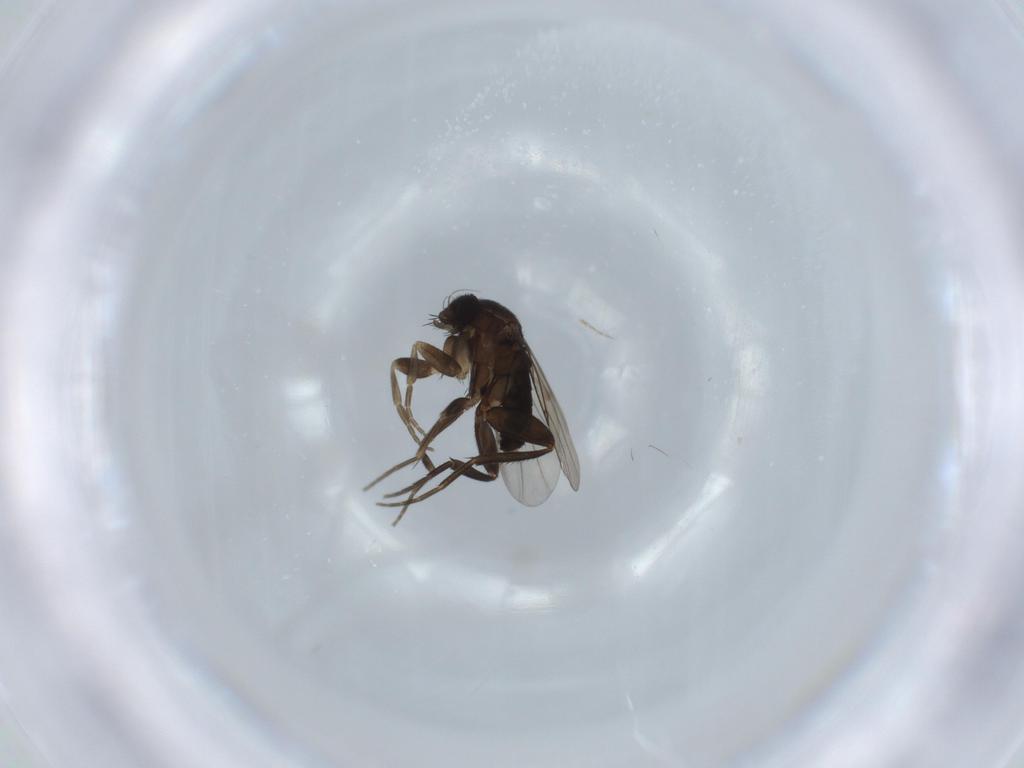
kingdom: Animalia
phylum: Arthropoda
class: Insecta
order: Diptera
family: Phoridae
